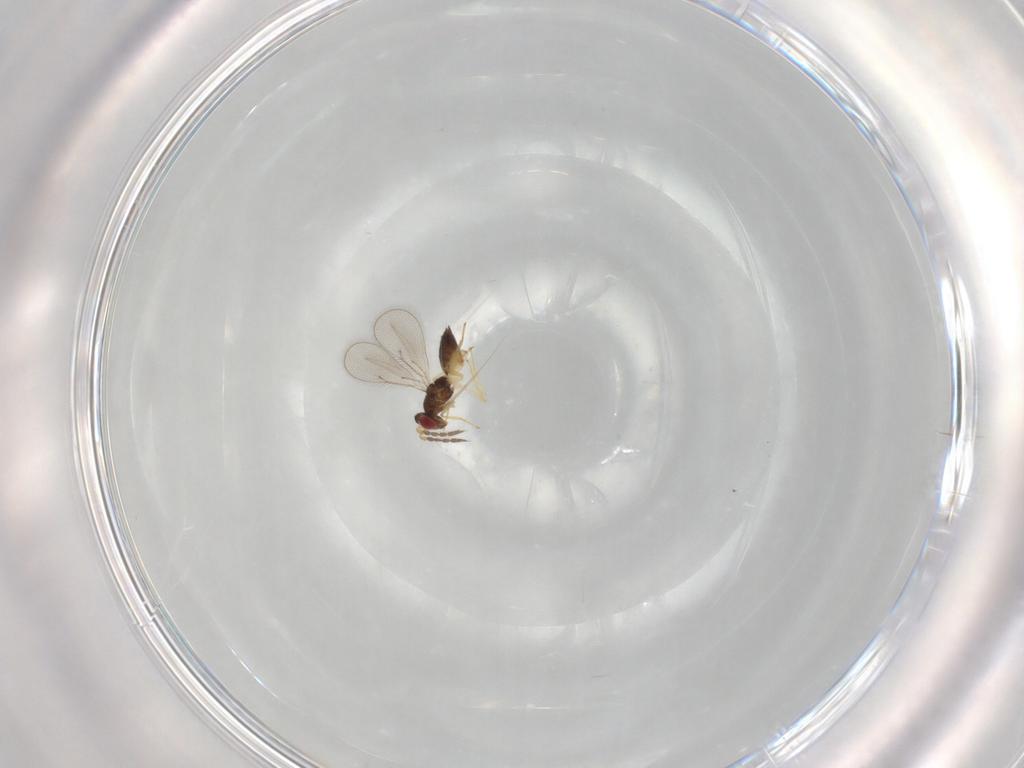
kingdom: Animalia
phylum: Arthropoda
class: Insecta
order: Hymenoptera
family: Eulophidae
